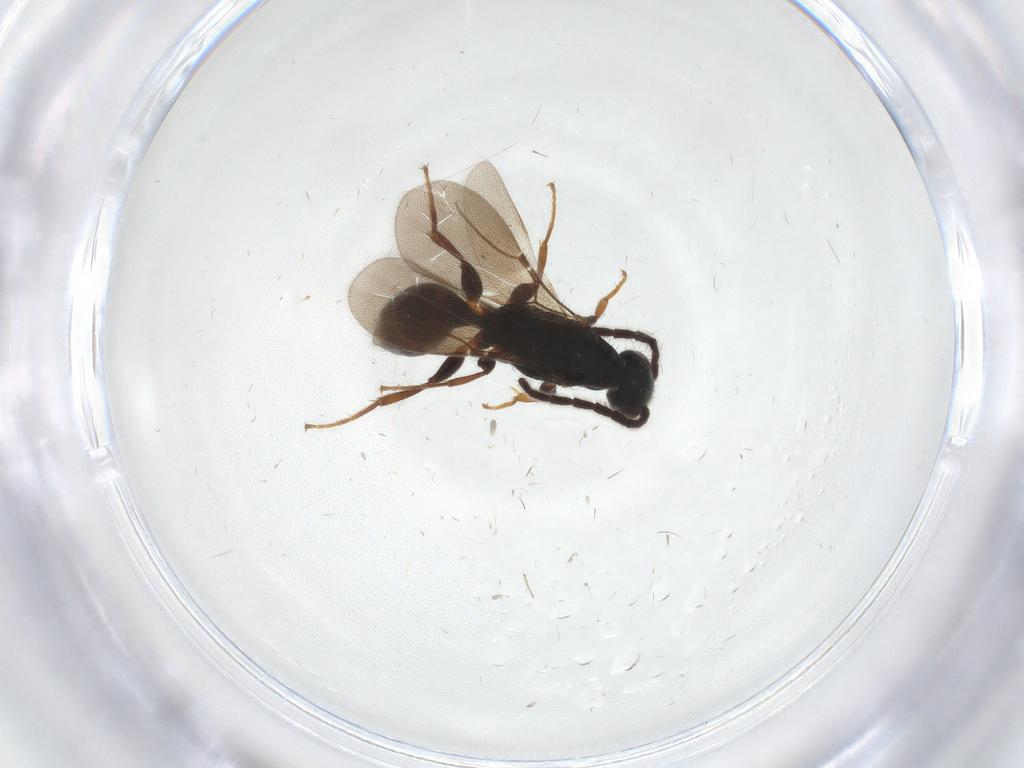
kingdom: Animalia
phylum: Arthropoda
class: Insecta
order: Hymenoptera
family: Bethylidae
